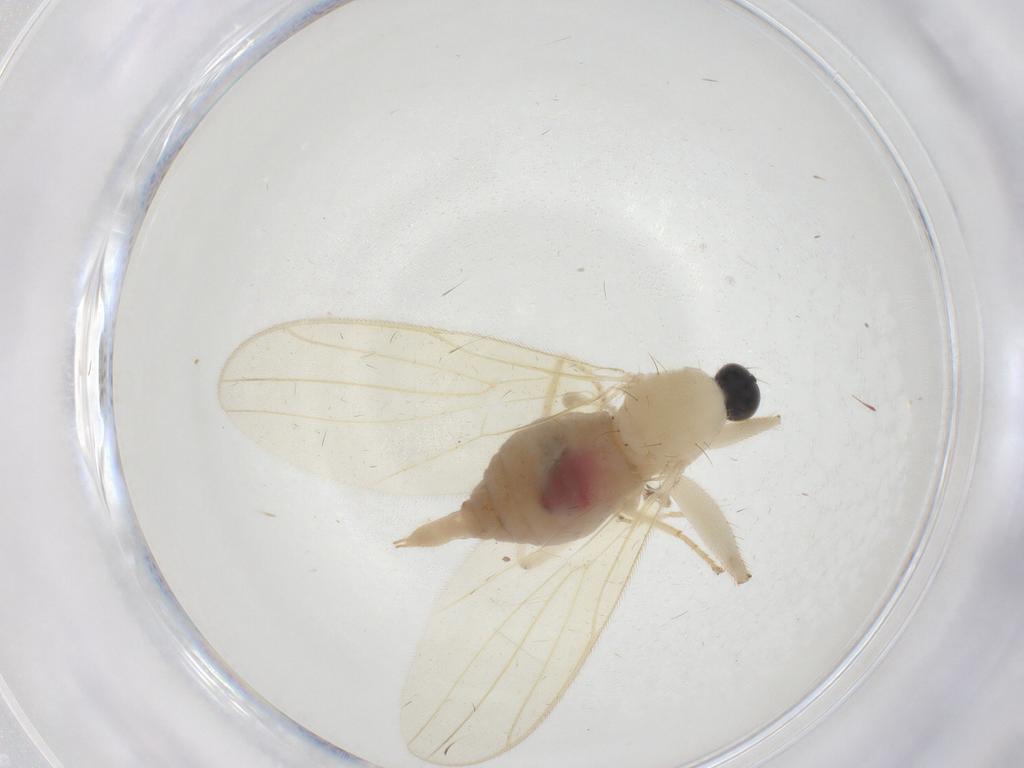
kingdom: Animalia
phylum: Arthropoda
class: Insecta
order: Diptera
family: Hybotidae
